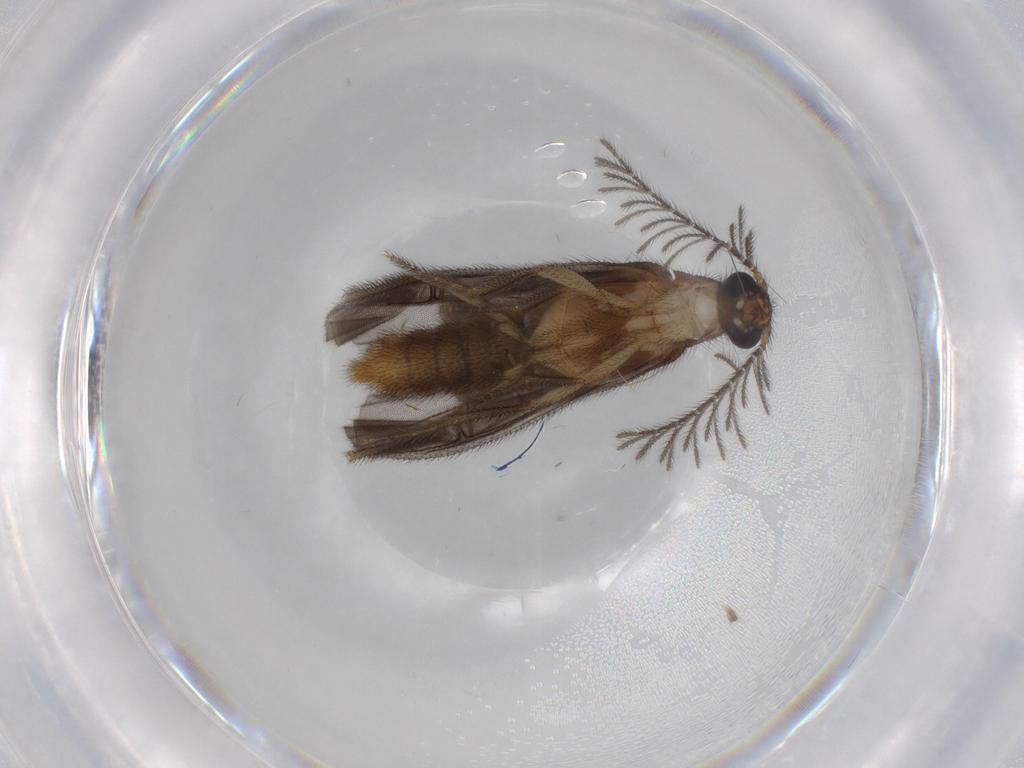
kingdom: Animalia
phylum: Arthropoda
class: Insecta
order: Coleoptera
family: Phengodidae
